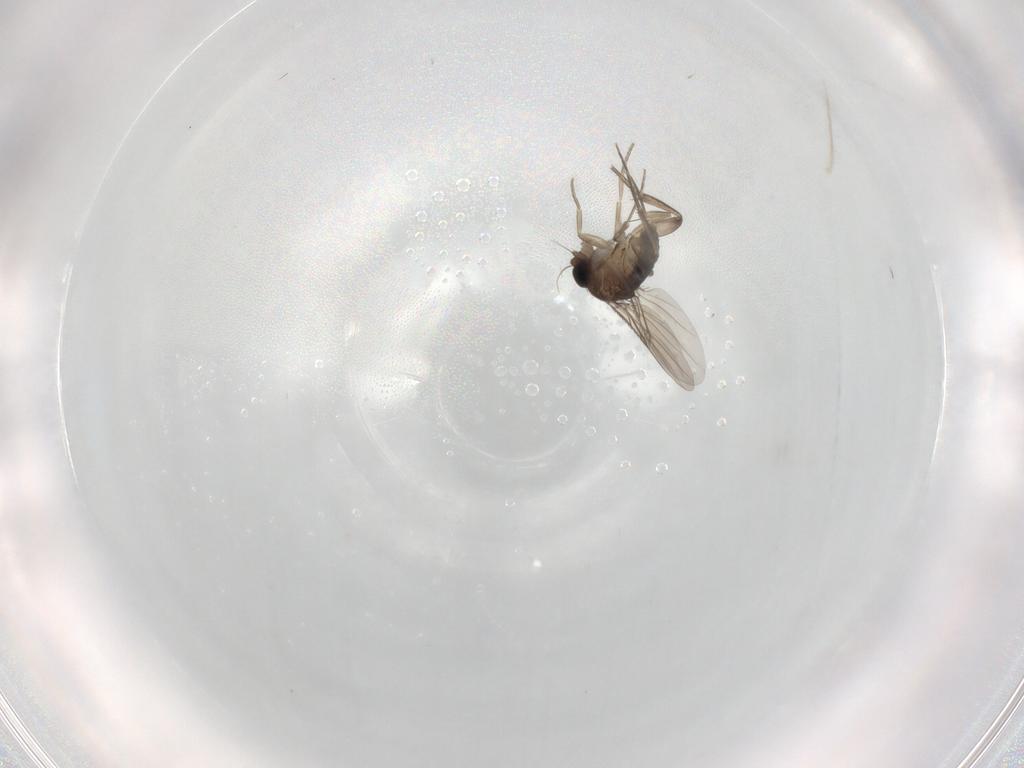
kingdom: Animalia
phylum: Arthropoda
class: Insecta
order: Diptera
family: Phoridae
